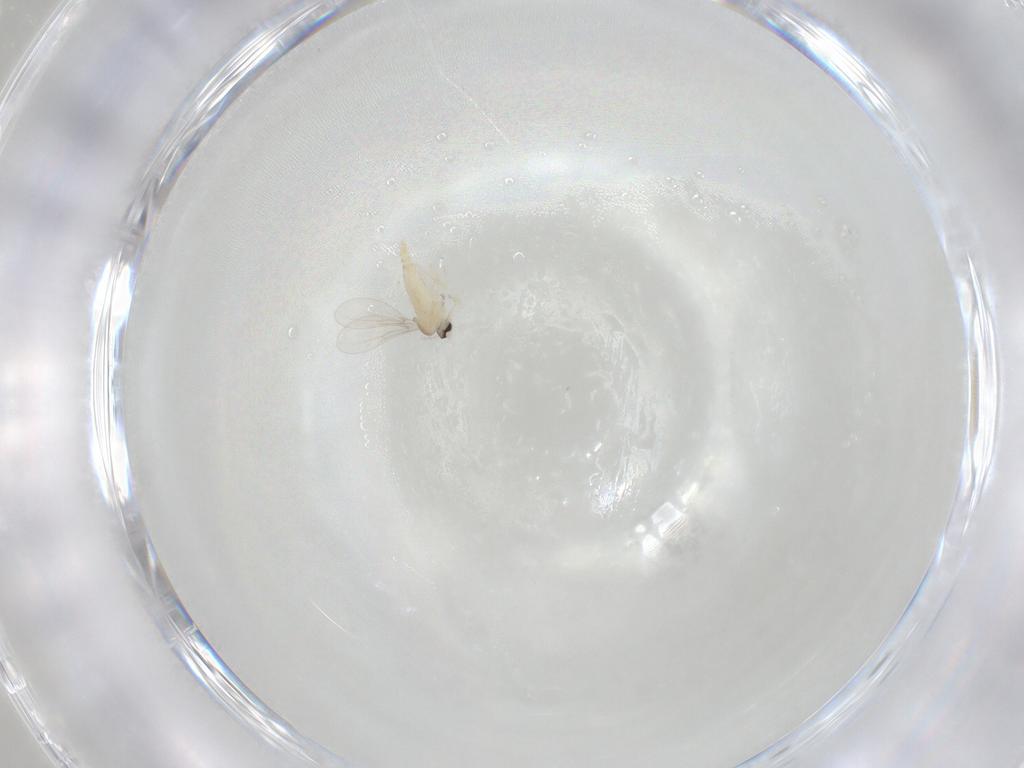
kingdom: Animalia
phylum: Arthropoda
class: Insecta
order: Diptera
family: Cecidomyiidae
